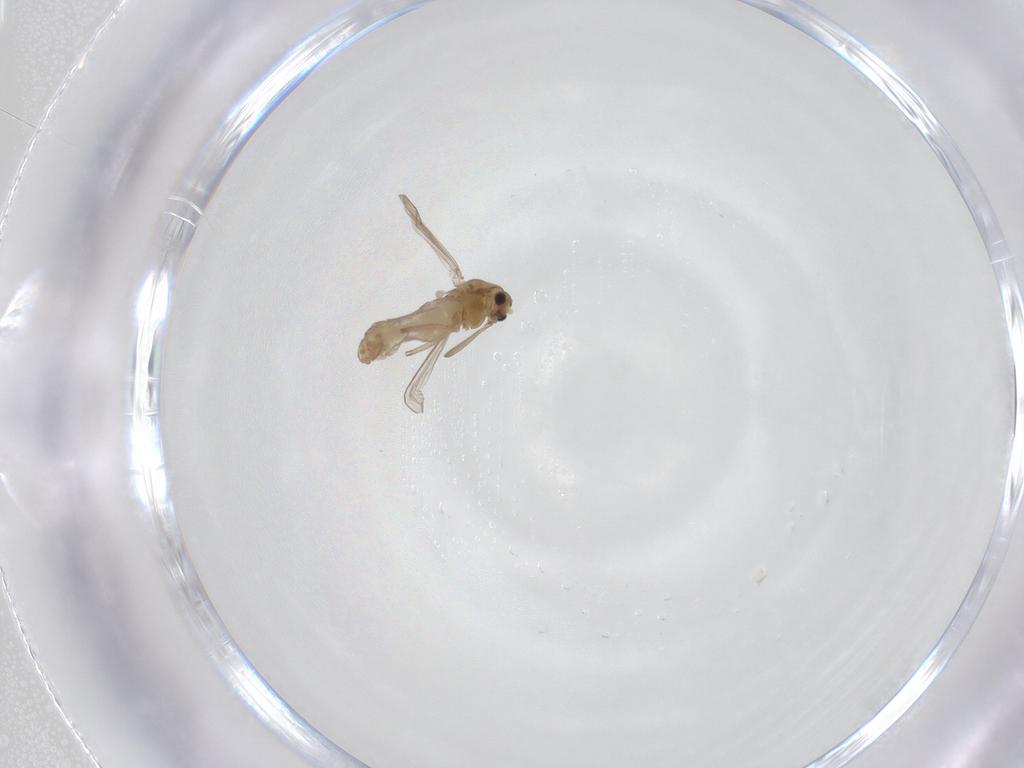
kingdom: Animalia
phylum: Arthropoda
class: Insecta
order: Diptera
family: Chironomidae
